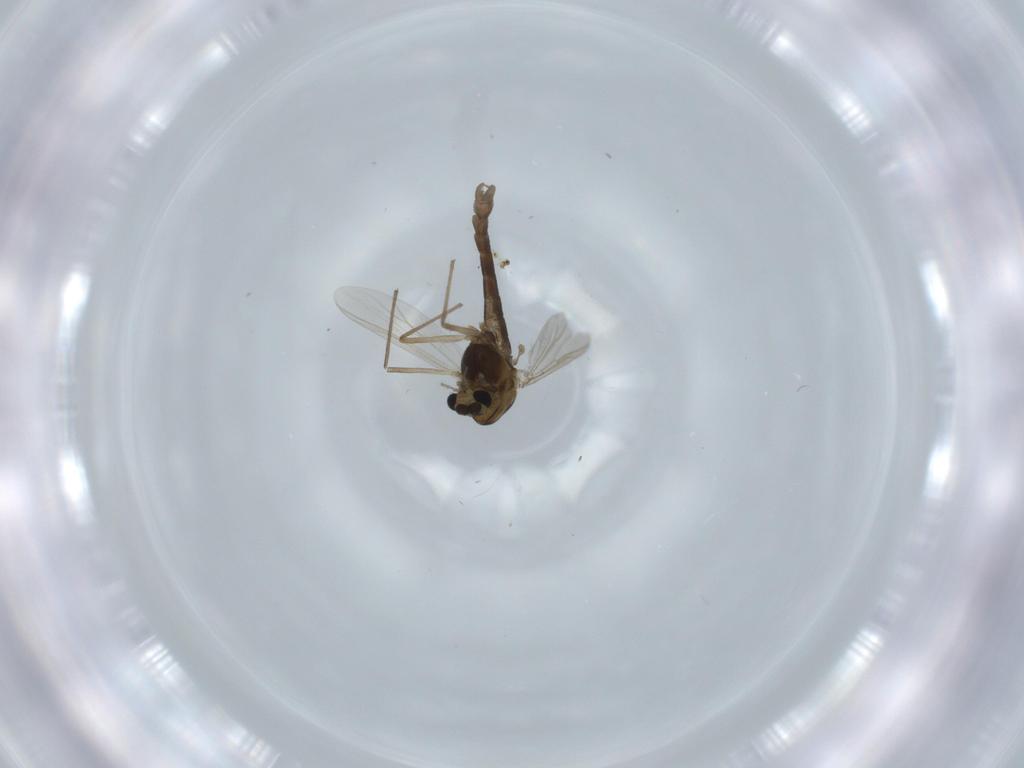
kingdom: Animalia
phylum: Arthropoda
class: Insecta
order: Diptera
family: Chironomidae
